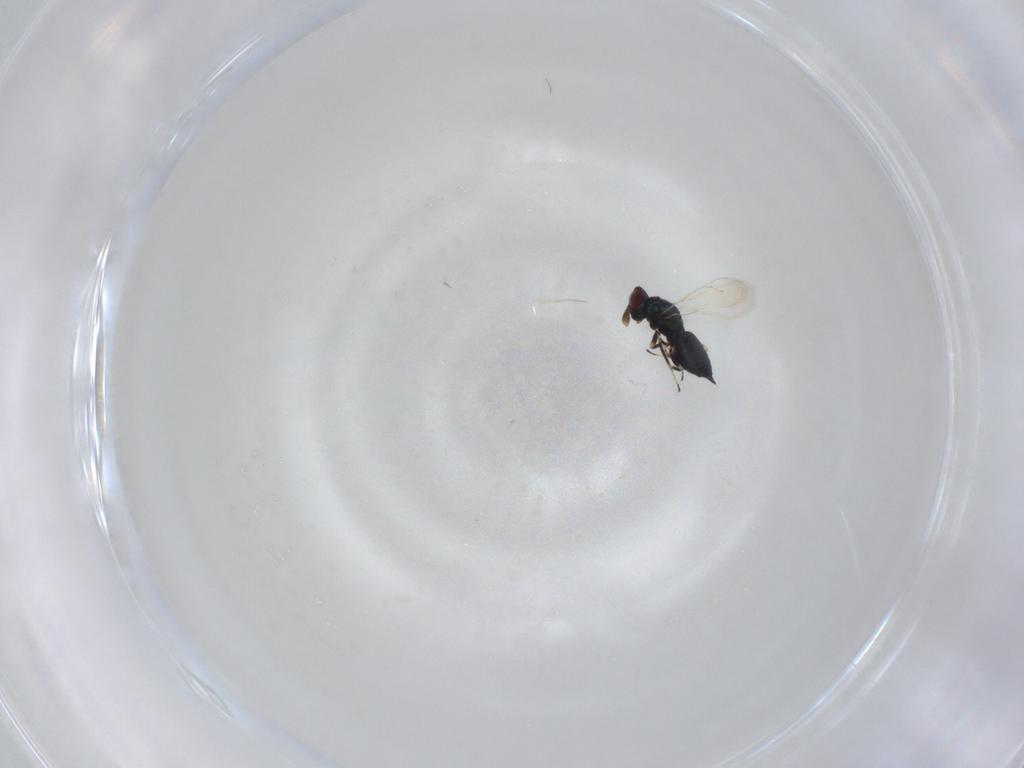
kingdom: Animalia
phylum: Arthropoda
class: Insecta
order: Hymenoptera
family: Tetracampidae
